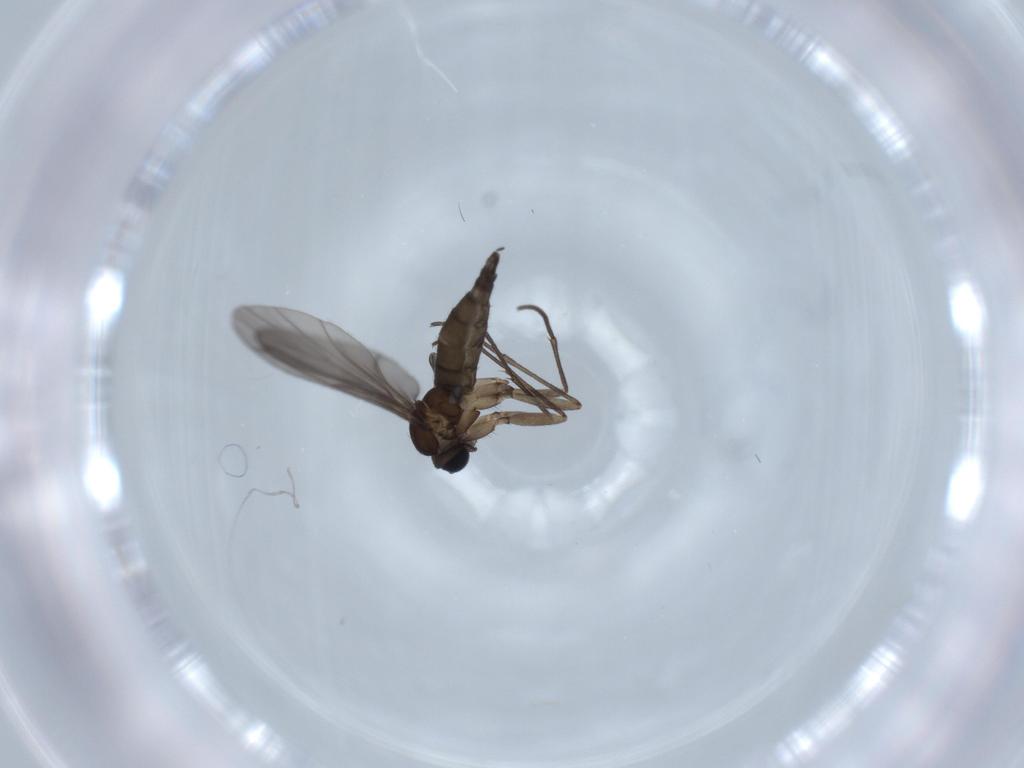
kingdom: Animalia
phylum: Arthropoda
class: Insecta
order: Diptera
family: Sciaridae
